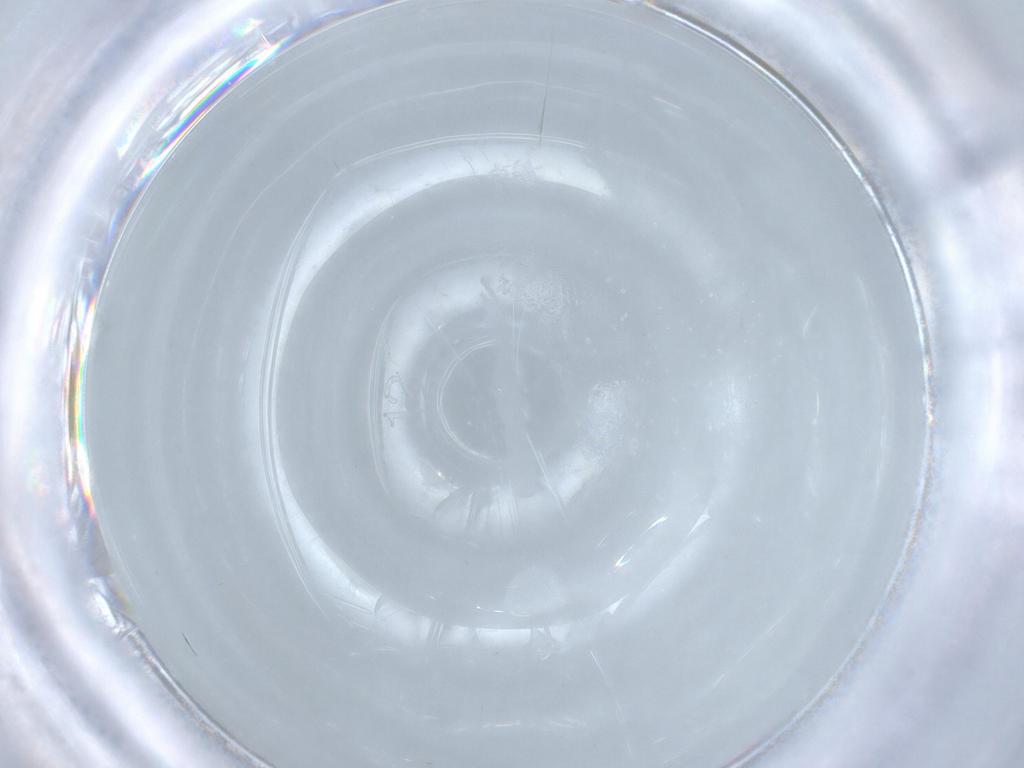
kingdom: Animalia
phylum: Arthropoda
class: Insecta
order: Diptera
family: Cecidomyiidae
